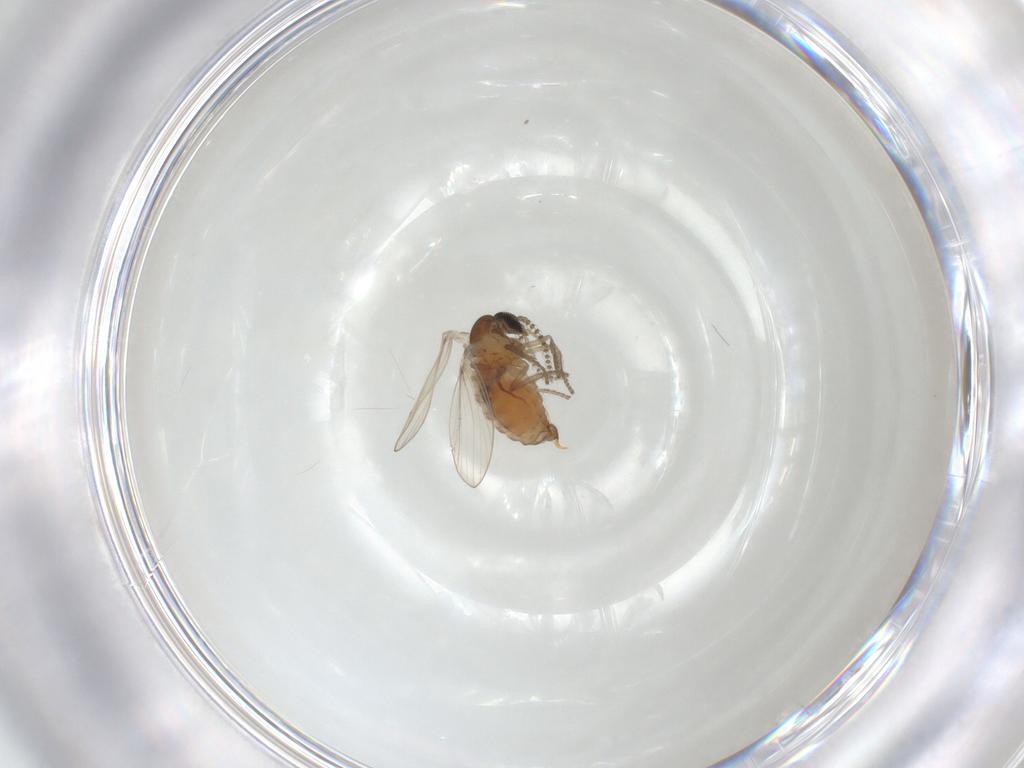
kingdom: Animalia
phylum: Arthropoda
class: Insecta
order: Diptera
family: Psychodidae
